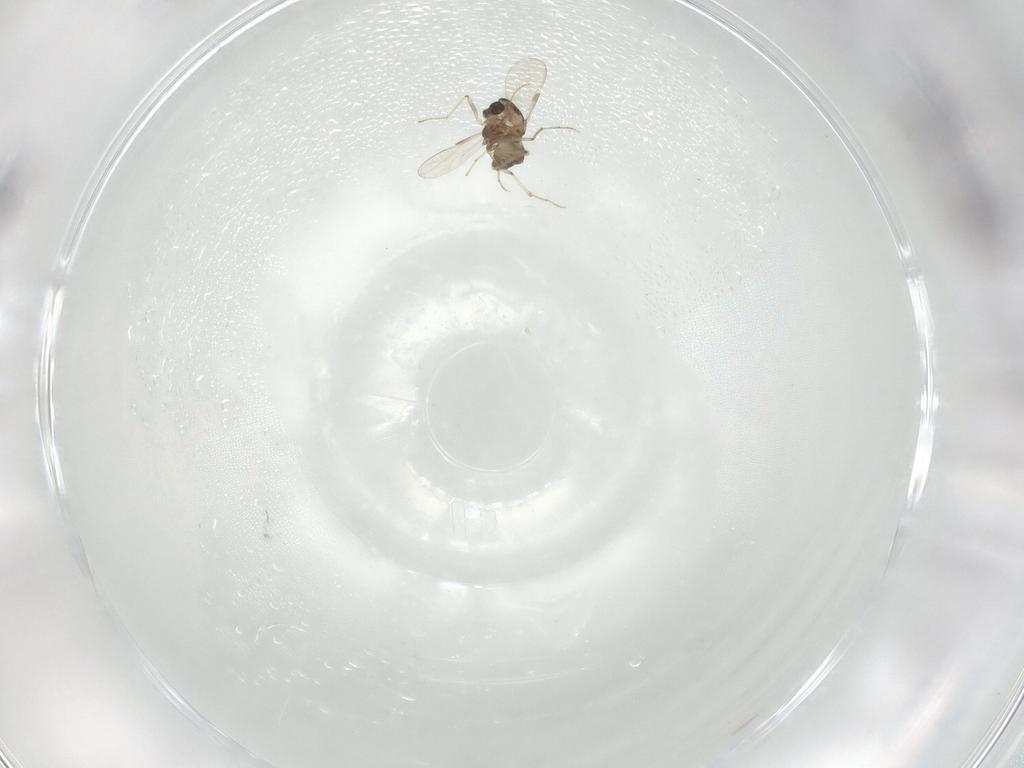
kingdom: Animalia
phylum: Arthropoda
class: Insecta
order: Diptera
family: Chironomidae
